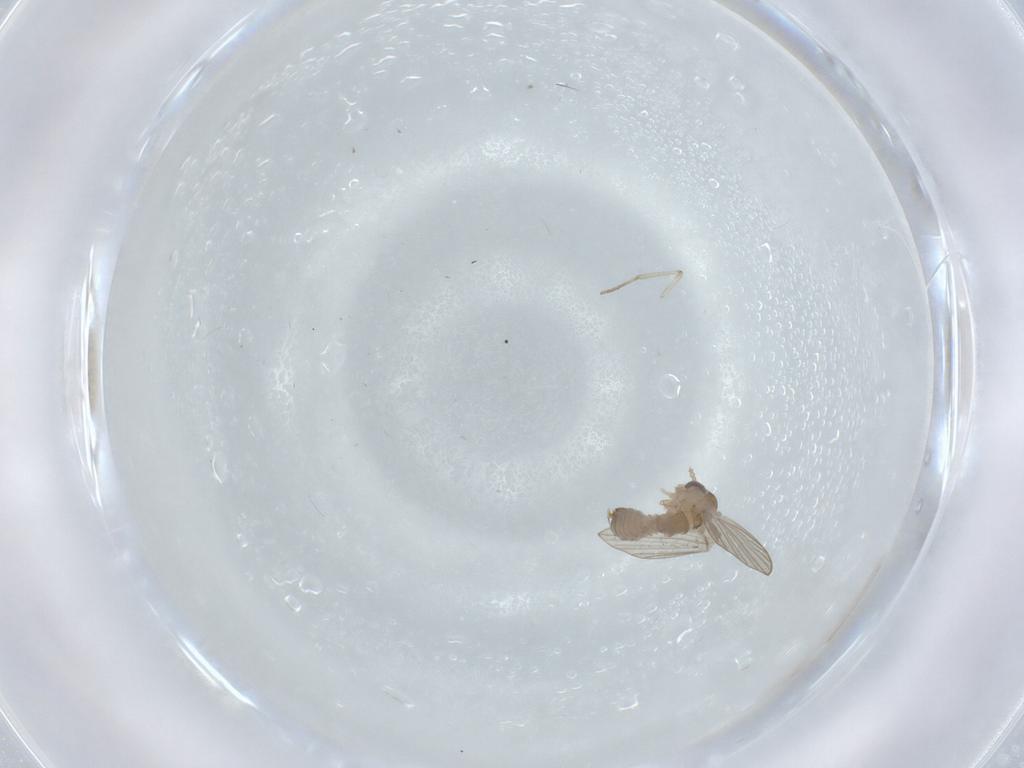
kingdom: Animalia
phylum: Arthropoda
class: Insecta
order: Diptera
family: Psychodidae
